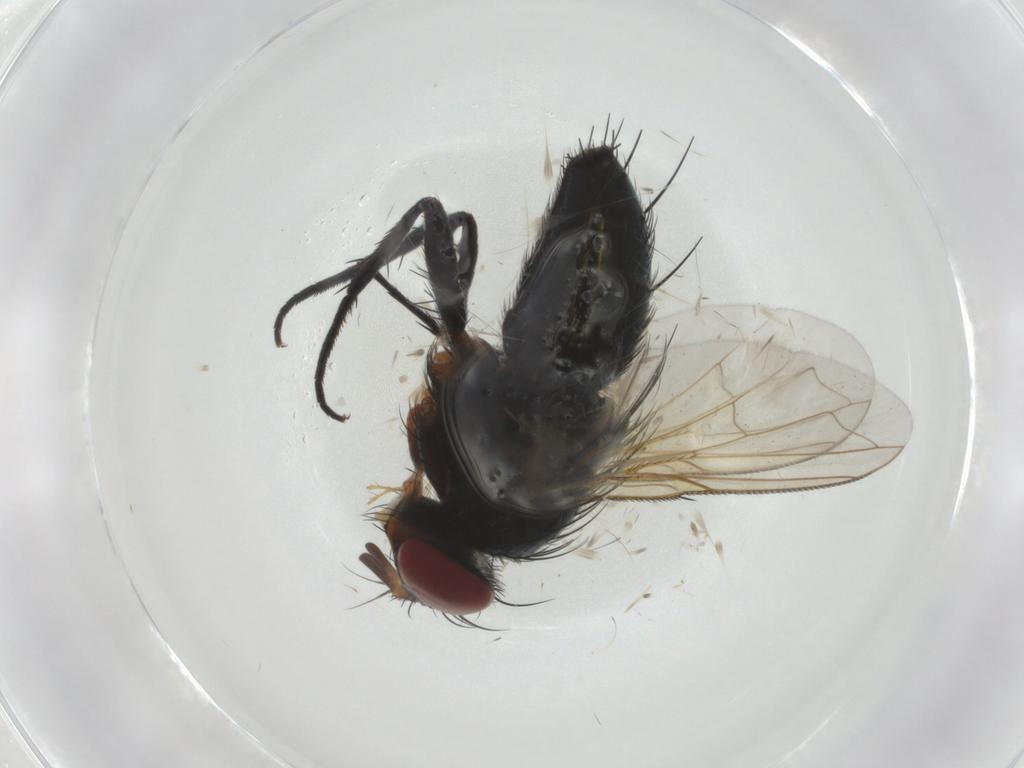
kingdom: Animalia
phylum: Arthropoda
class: Insecta
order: Diptera
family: Tachinidae
